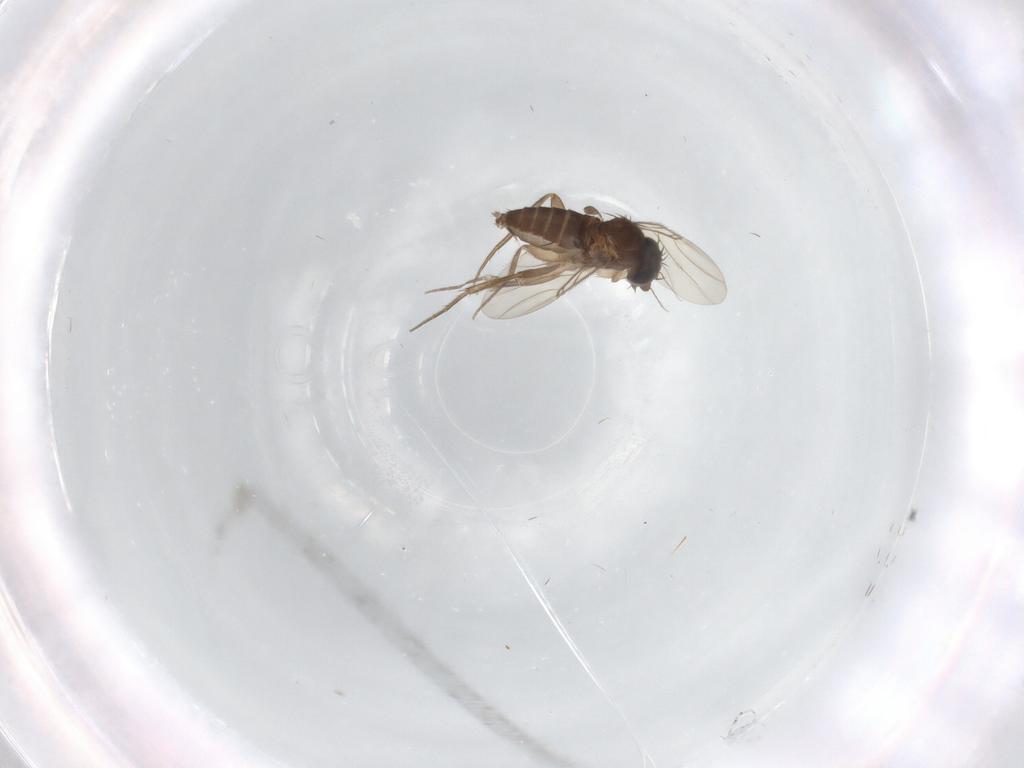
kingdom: Animalia
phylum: Arthropoda
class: Insecta
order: Diptera
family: Phoridae
